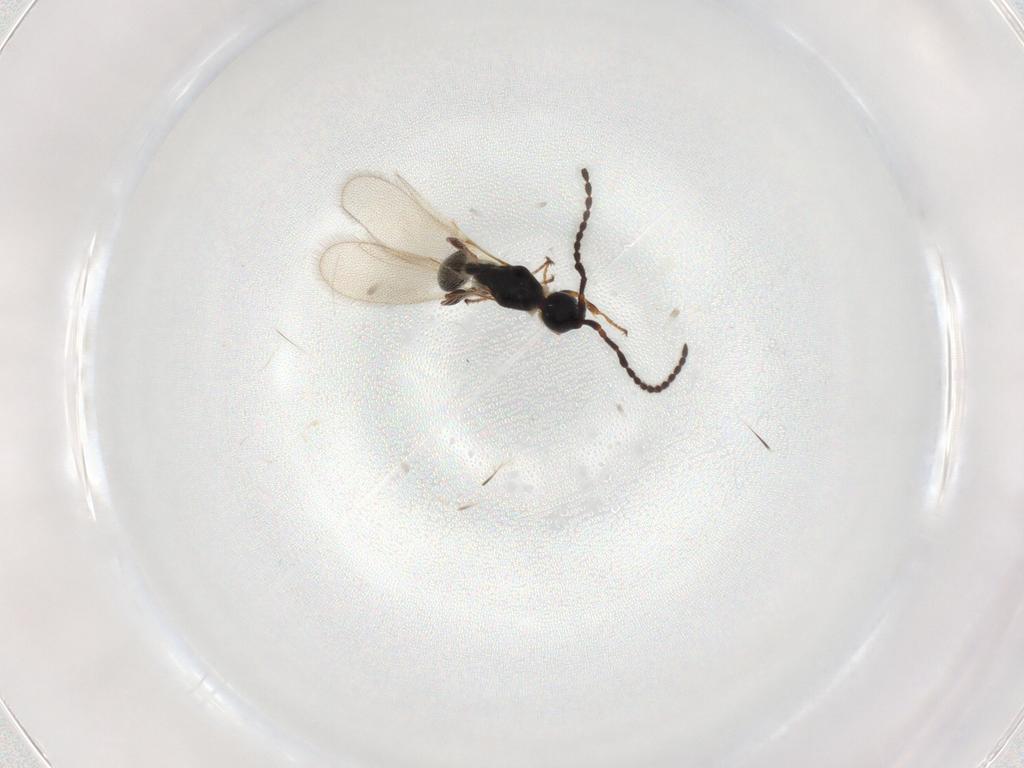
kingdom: Animalia
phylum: Arthropoda
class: Insecta
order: Hymenoptera
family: Diapriidae
